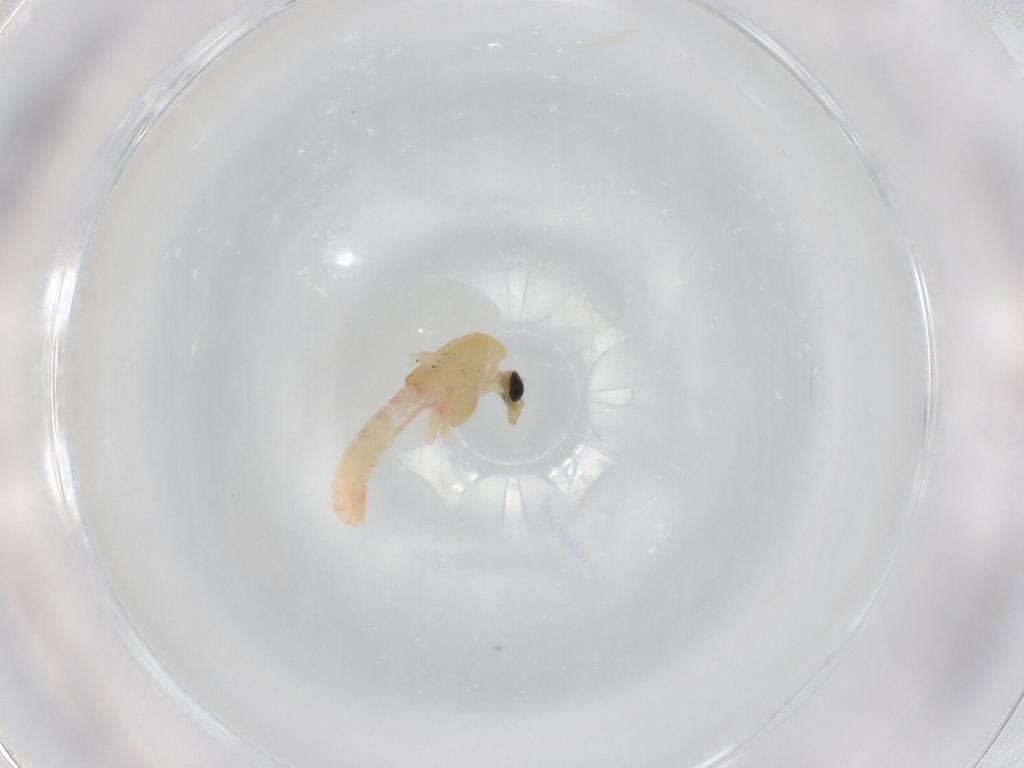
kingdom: Animalia
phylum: Arthropoda
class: Insecta
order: Diptera
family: Chironomidae
